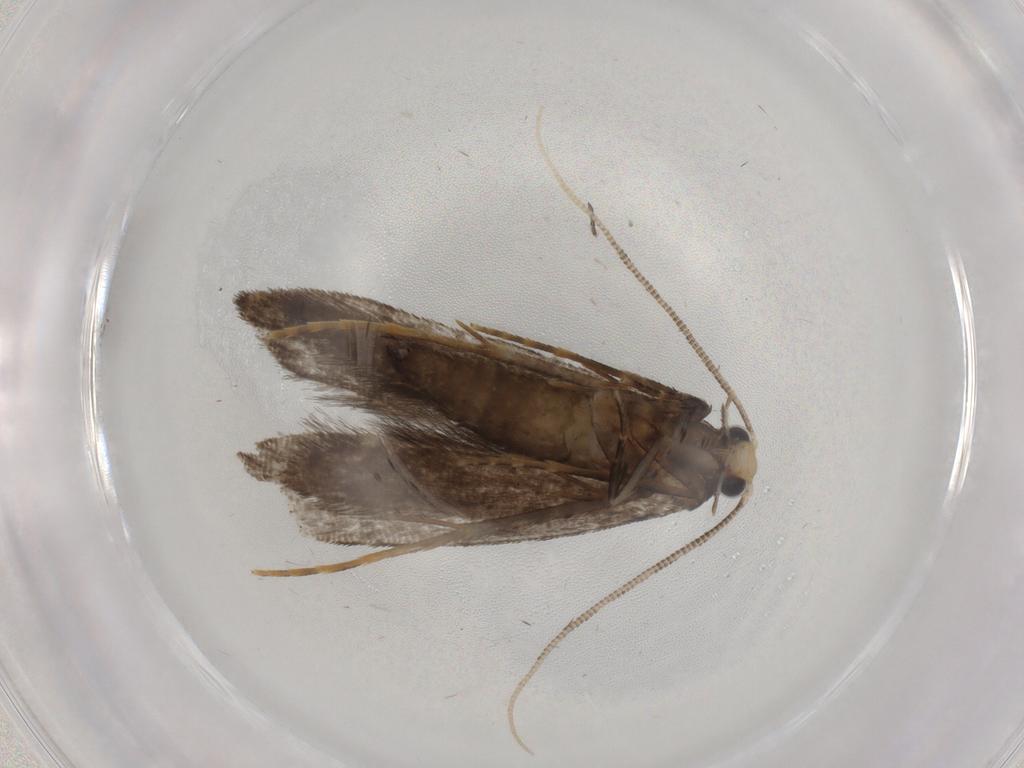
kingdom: Animalia
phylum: Arthropoda
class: Insecta
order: Lepidoptera
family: Tineidae
